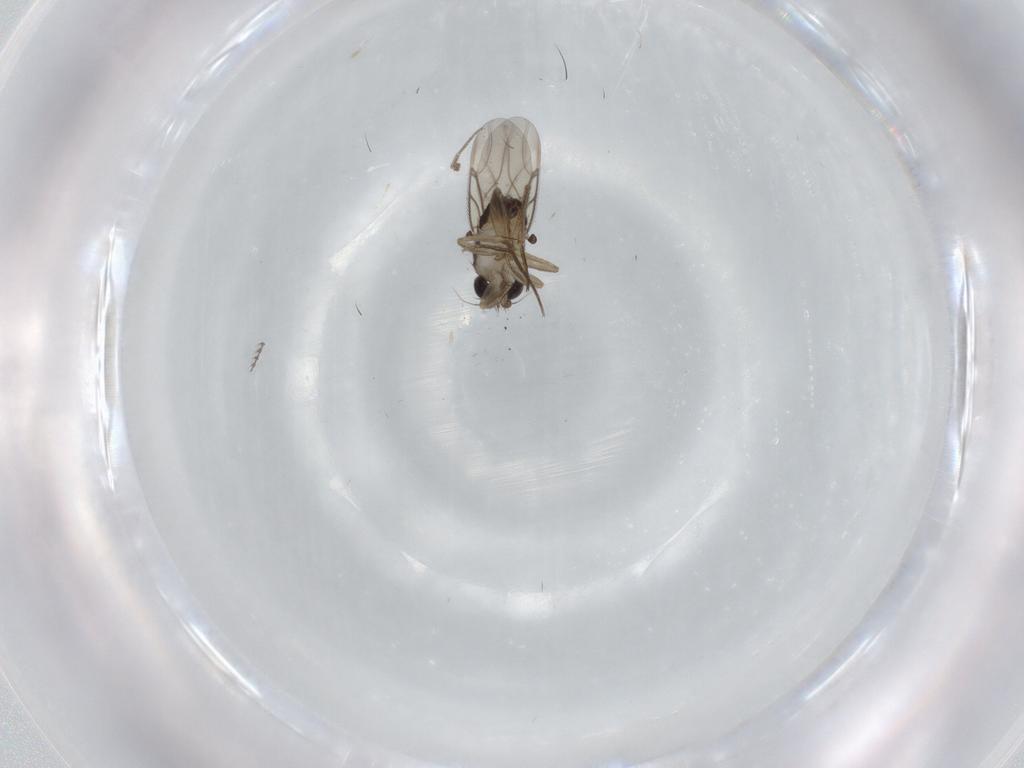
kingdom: Animalia
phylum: Arthropoda
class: Insecta
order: Diptera
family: Phoridae
